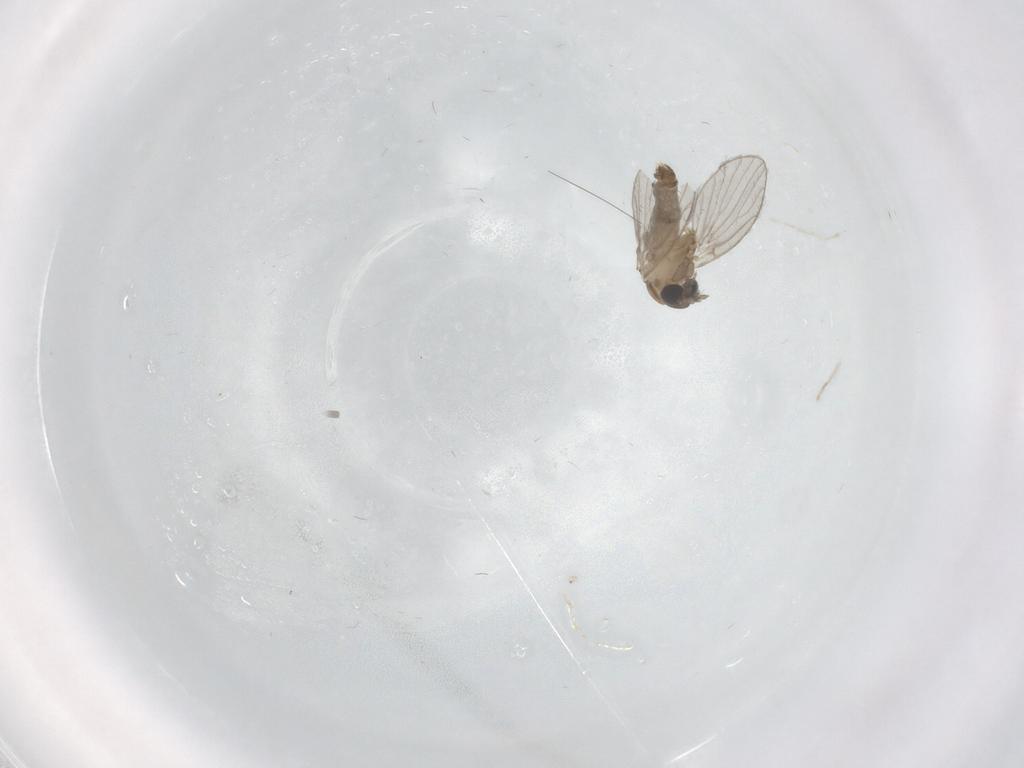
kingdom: Animalia
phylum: Arthropoda
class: Insecta
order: Diptera
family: Psychodidae
